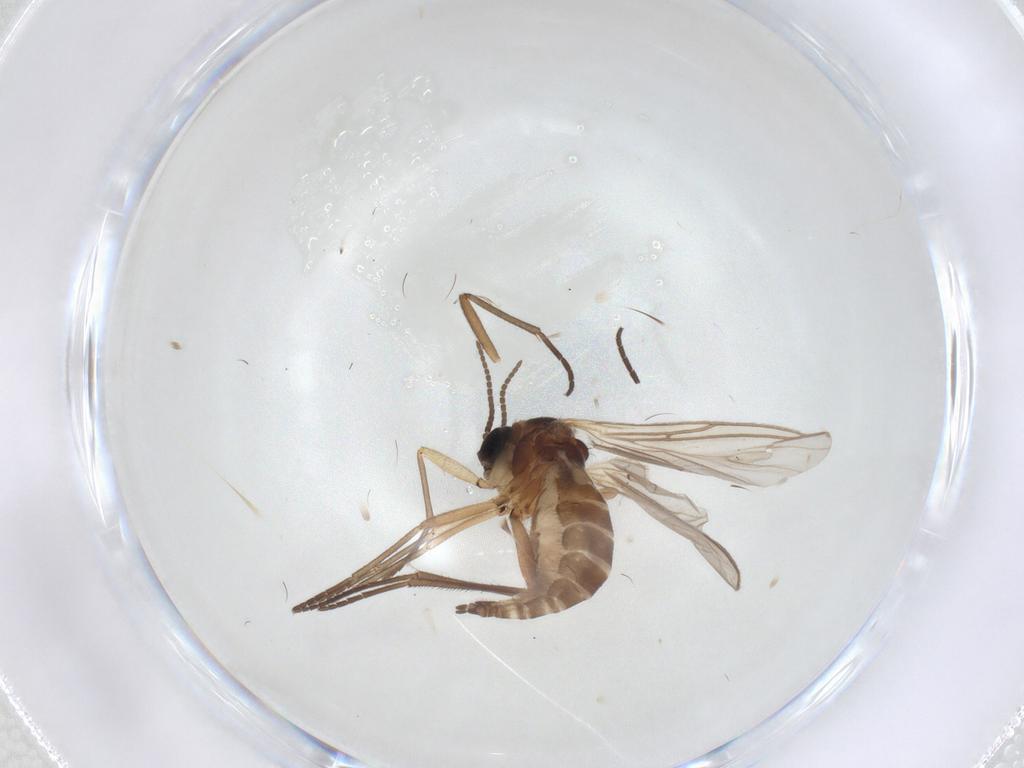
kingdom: Animalia
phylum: Arthropoda
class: Insecta
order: Diptera
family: Sciaridae
